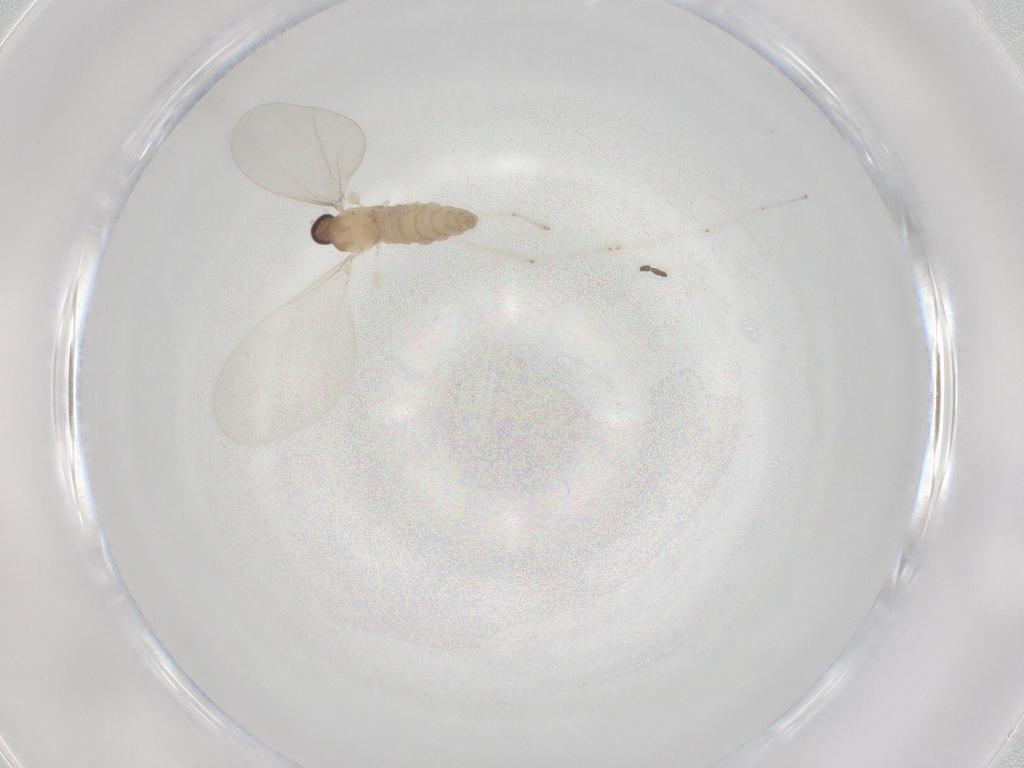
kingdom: Animalia
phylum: Arthropoda
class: Insecta
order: Diptera
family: Cecidomyiidae
